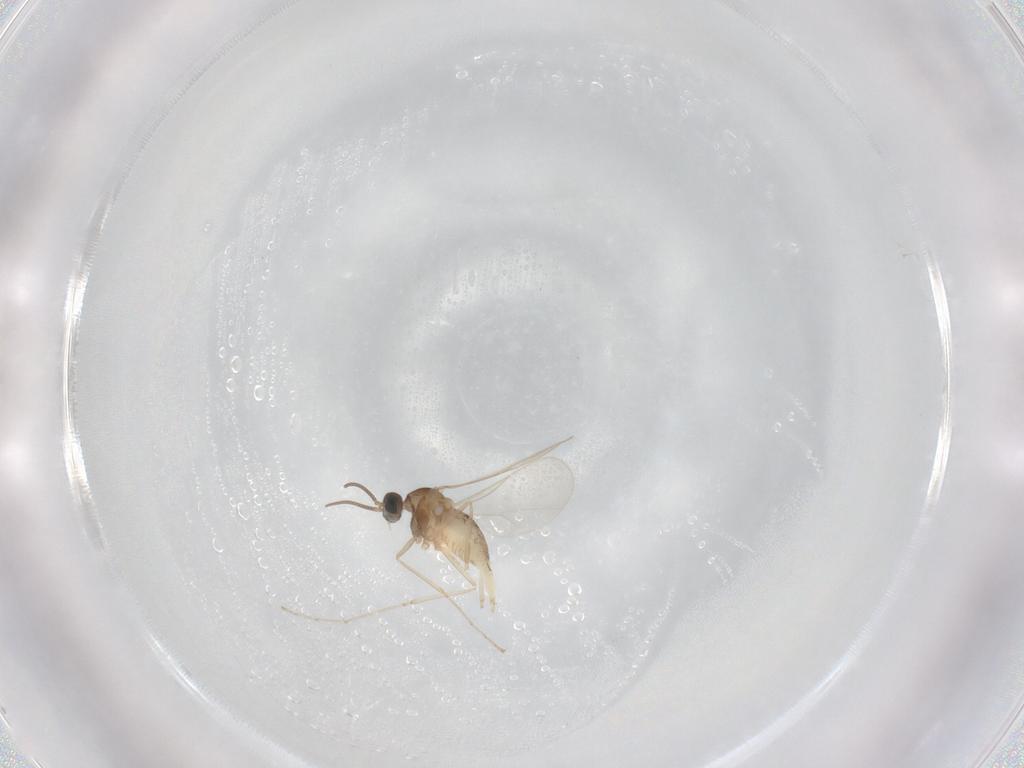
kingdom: Animalia
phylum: Arthropoda
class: Insecta
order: Diptera
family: Cecidomyiidae
